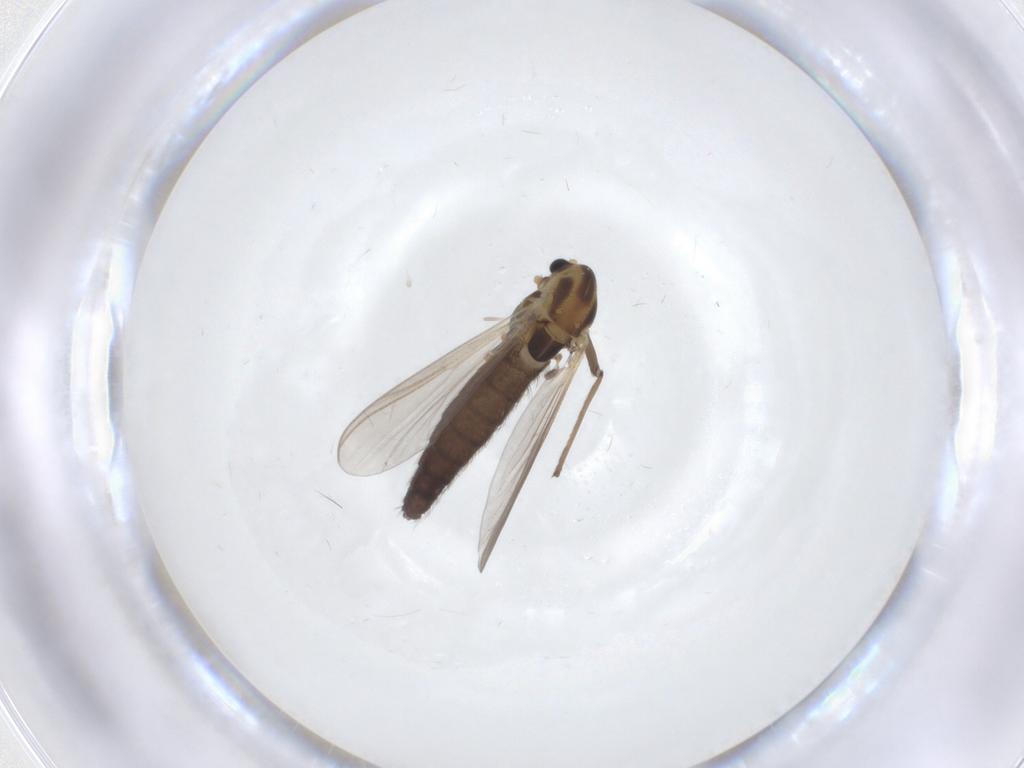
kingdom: Animalia
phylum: Arthropoda
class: Insecta
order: Diptera
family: Chironomidae
